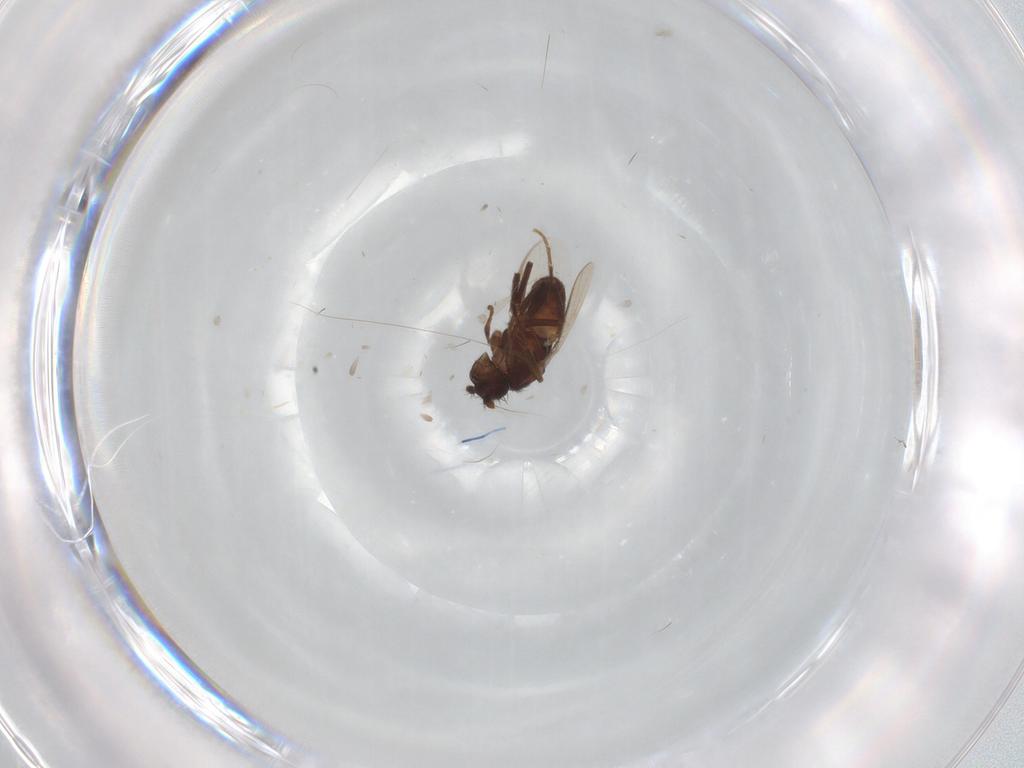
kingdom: Animalia
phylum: Arthropoda
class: Insecta
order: Diptera
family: Sphaeroceridae
